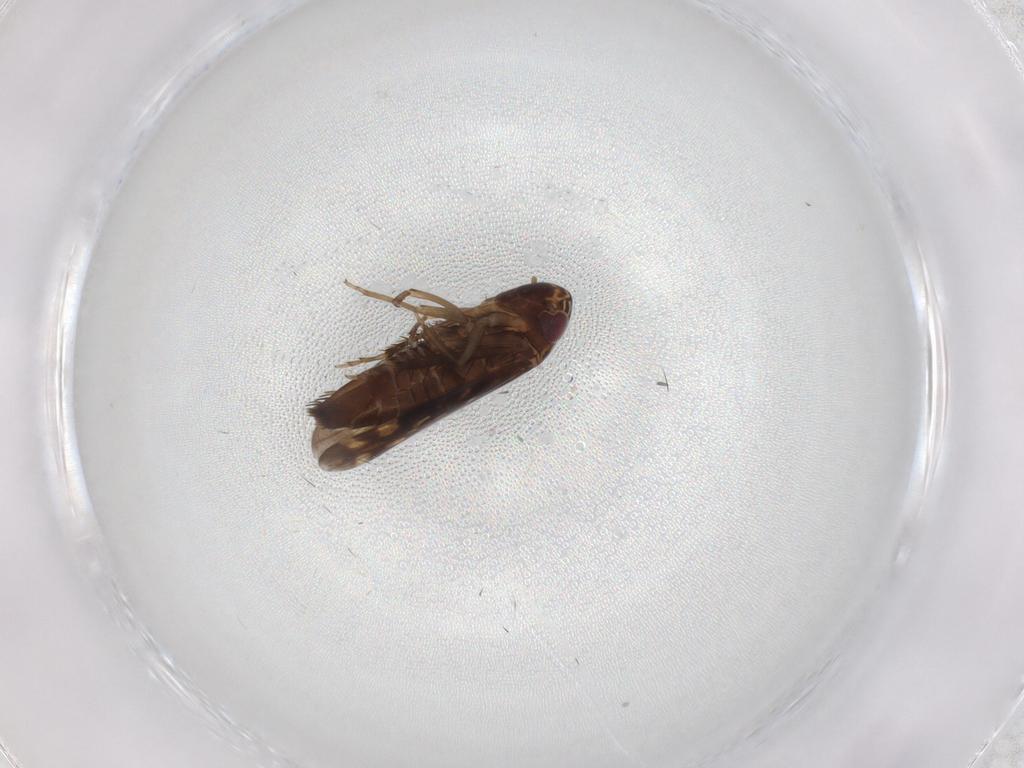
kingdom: Animalia
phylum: Arthropoda
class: Insecta
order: Hemiptera
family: Cicadellidae
